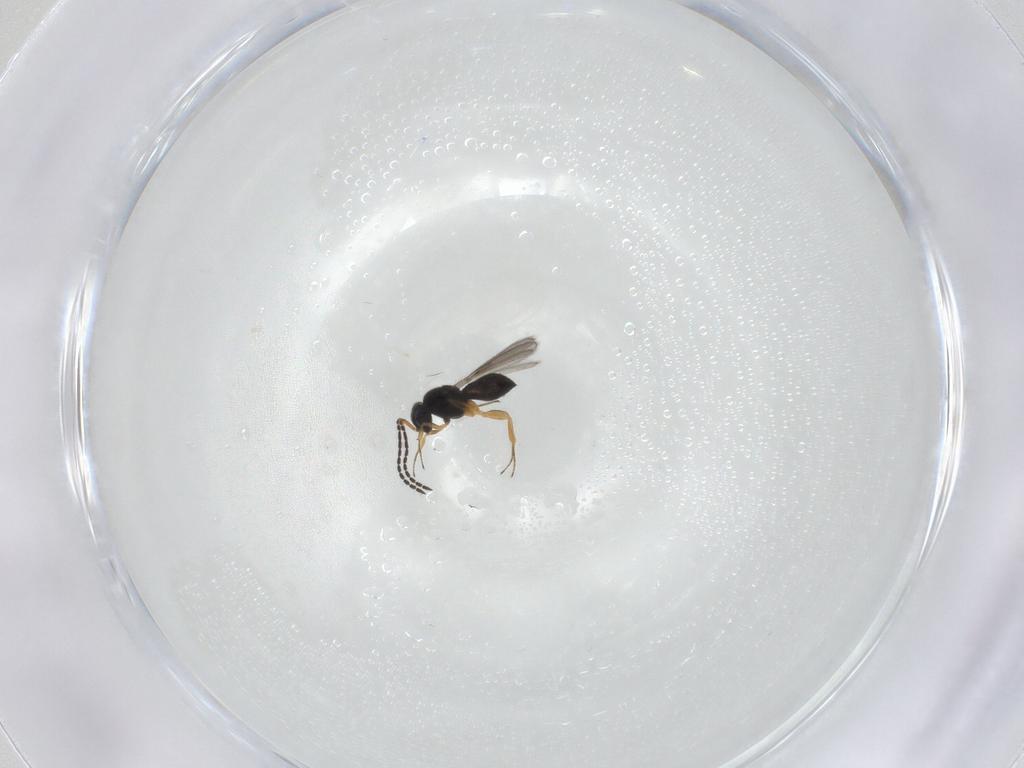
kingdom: Animalia
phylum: Arthropoda
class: Insecta
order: Hymenoptera
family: Scelionidae
